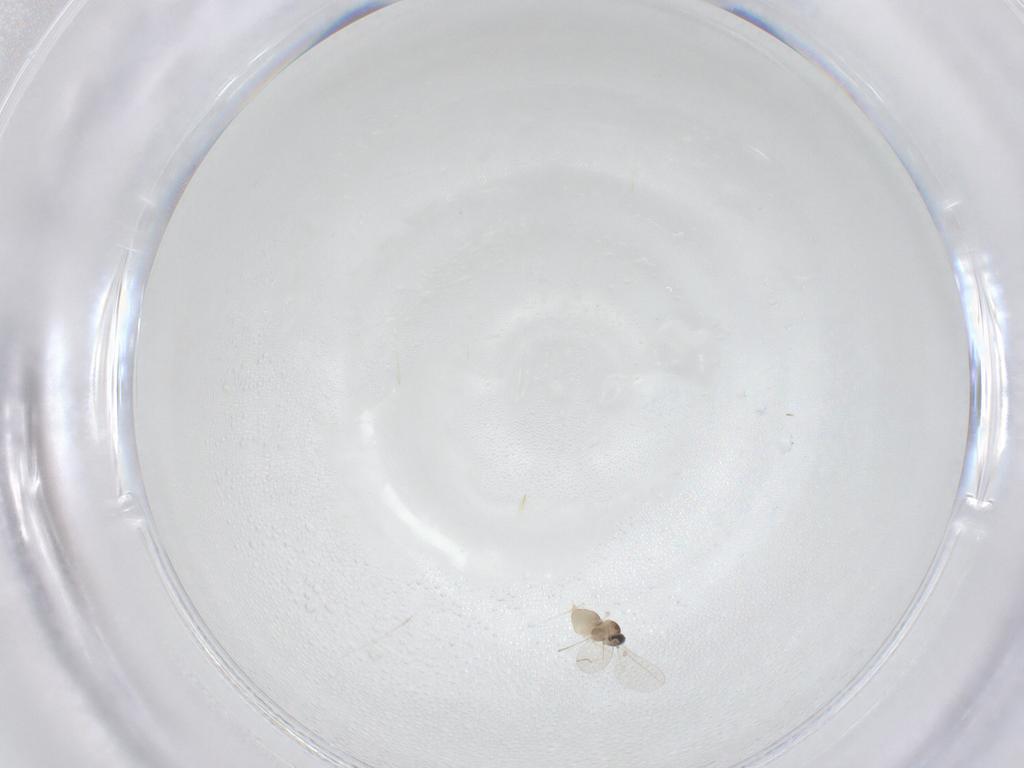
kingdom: Animalia
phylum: Arthropoda
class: Insecta
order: Diptera
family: Cecidomyiidae
